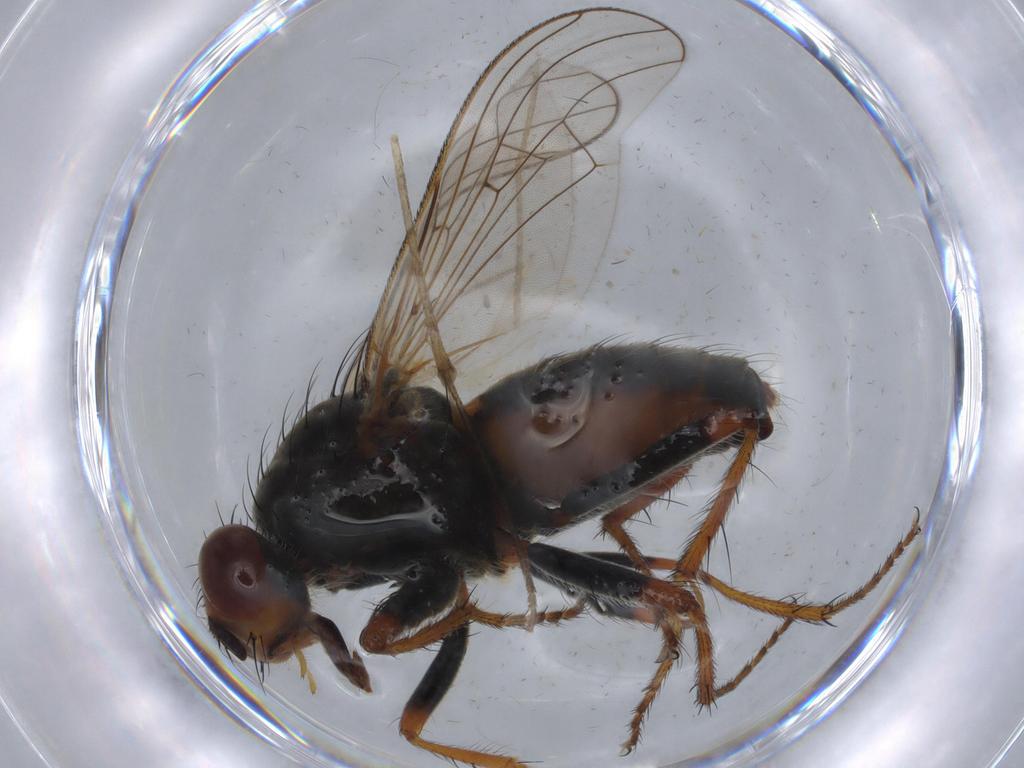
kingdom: Animalia
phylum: Arthropoda
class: Insecta
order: Diptera
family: Scathophagidae
